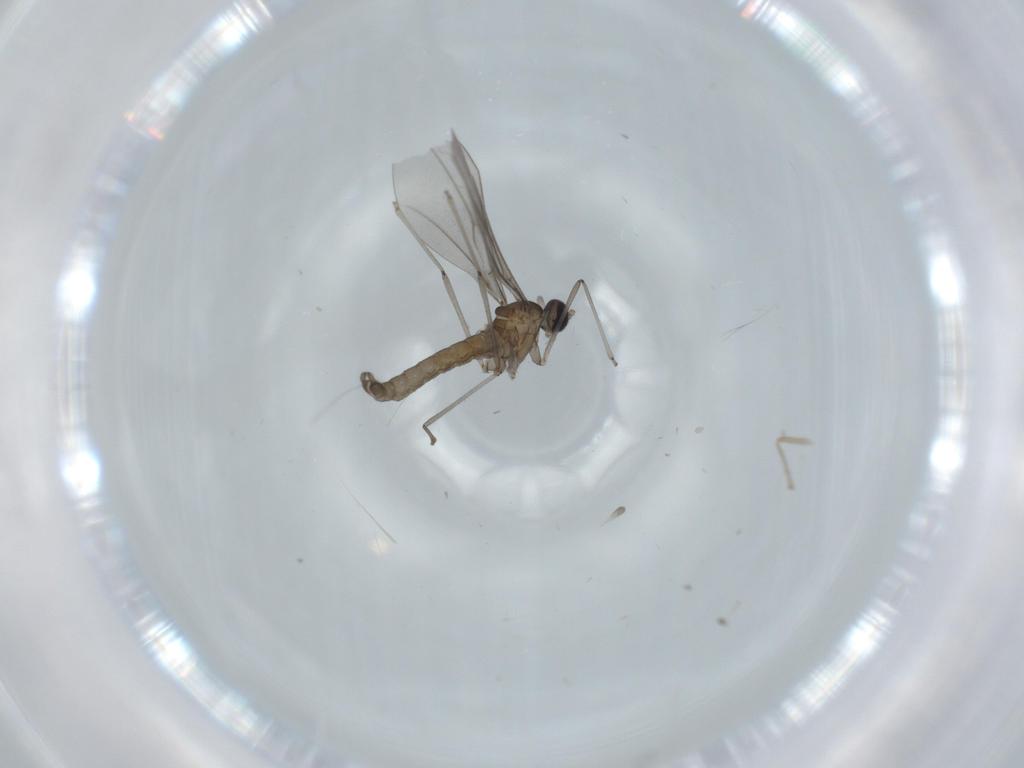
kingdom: Animalia
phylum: Arthropoda
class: Insecta
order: Diptera
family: Cecidomyiidae
